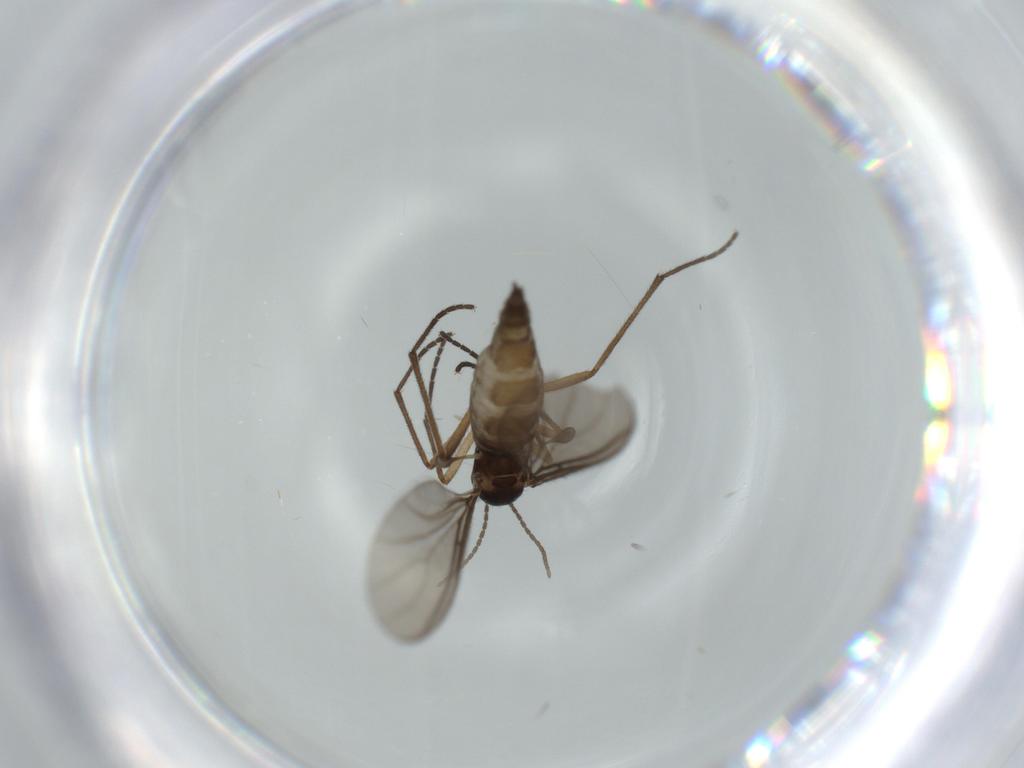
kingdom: Animalia
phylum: Arthropoda
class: Insecta
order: Diptera
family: Sciaridae
